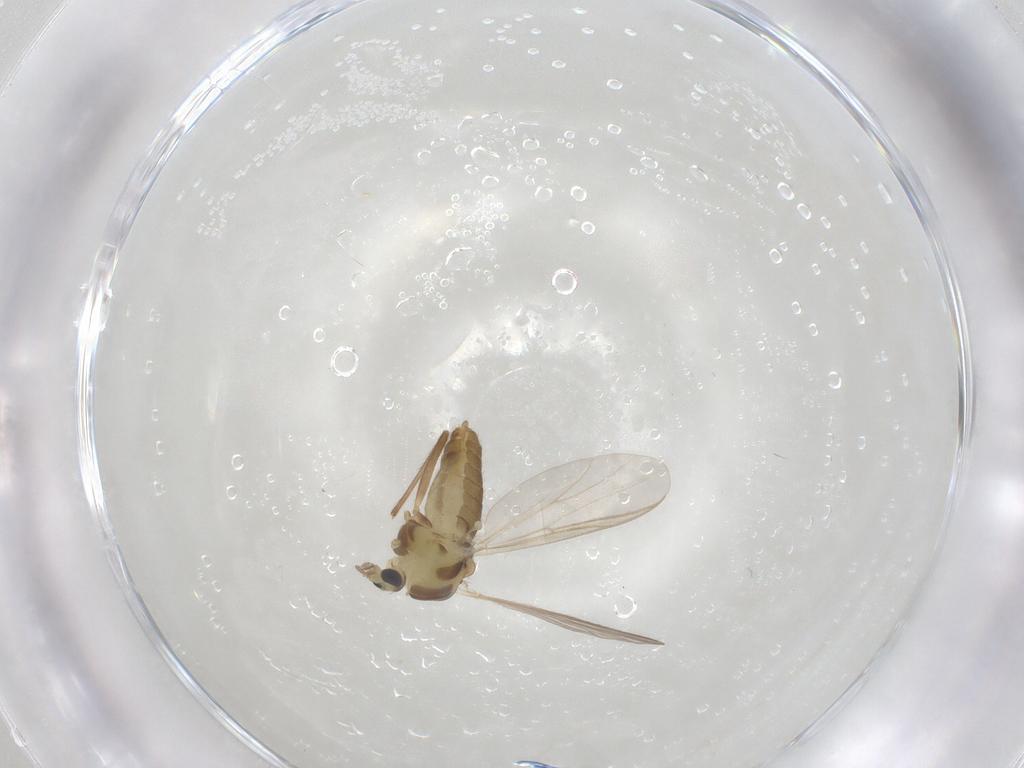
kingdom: Animalia
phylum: Arthropoda
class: Insecta
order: Diptera
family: Chironomidae
